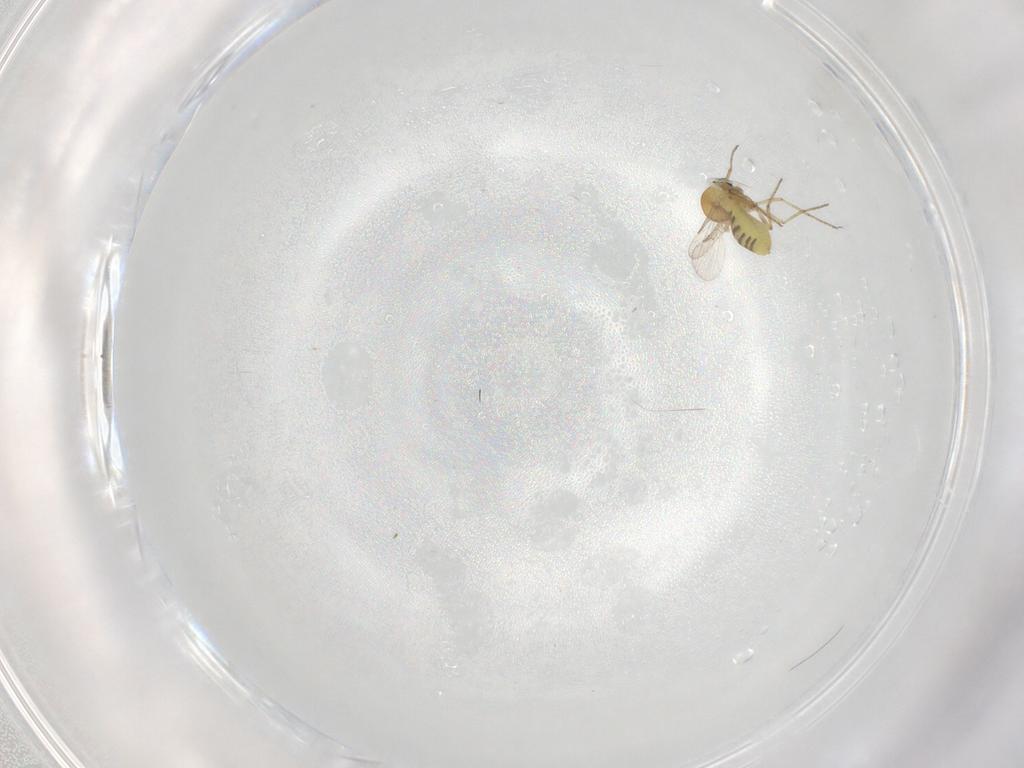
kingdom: Animalia
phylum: Arthropoda
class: Insecta
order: Diptera
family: Ceratopogonidae
